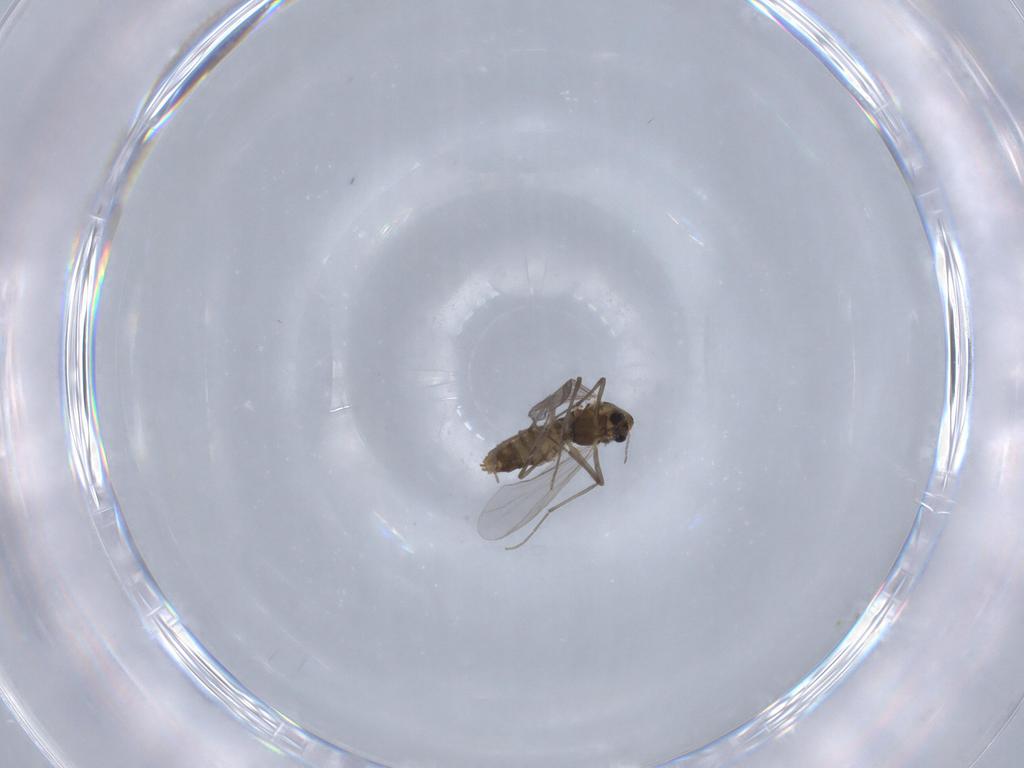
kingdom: Animalia
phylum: Arthropoda
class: Insecta
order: Diptera
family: Chironomidae
